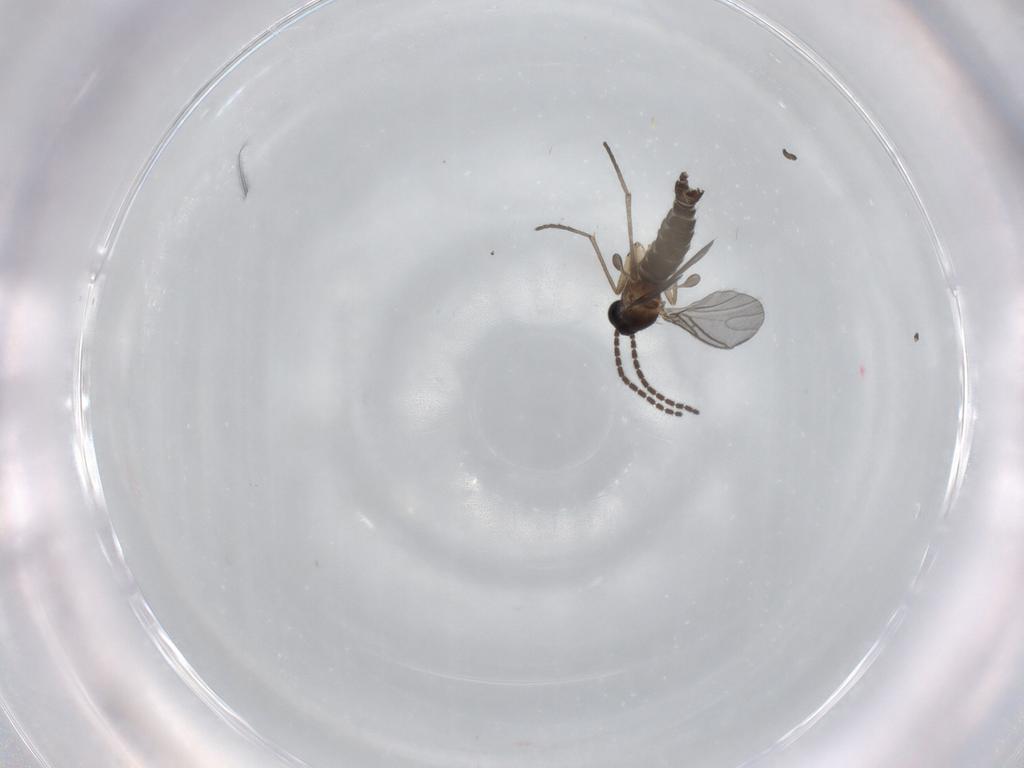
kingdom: Animalia
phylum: Arthropoda
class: Insecta
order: Diptera
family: Sciaridae
